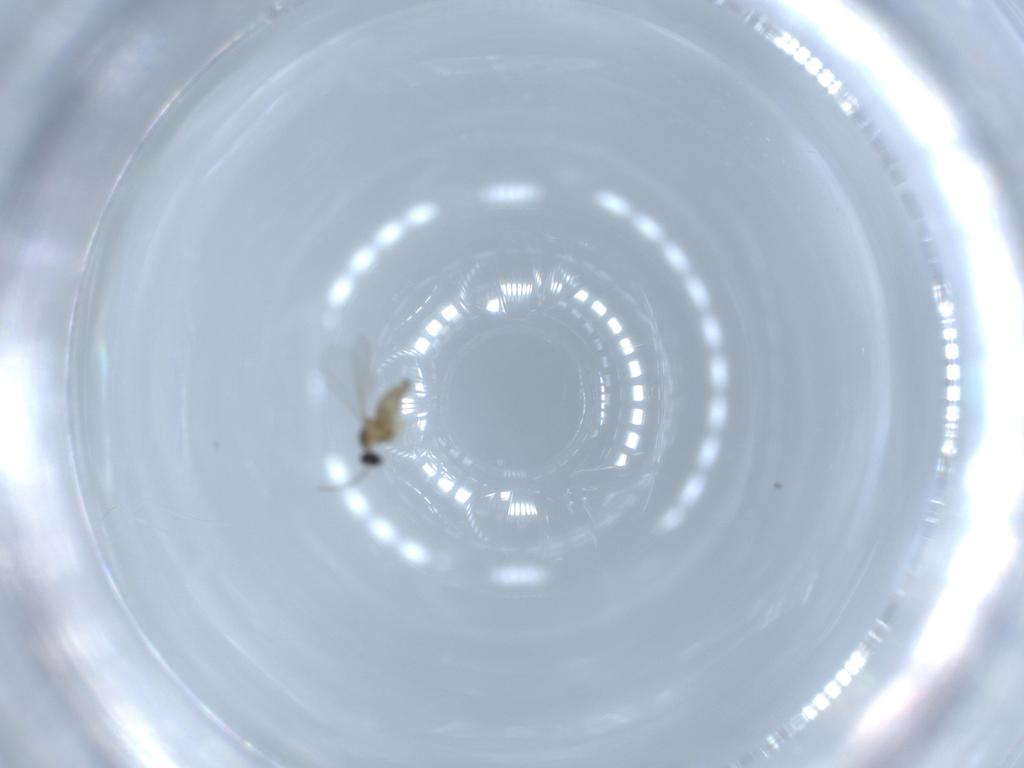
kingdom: Animalia
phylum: Arthropoda
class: Insecta
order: Diptera
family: Cecidomyiidae
